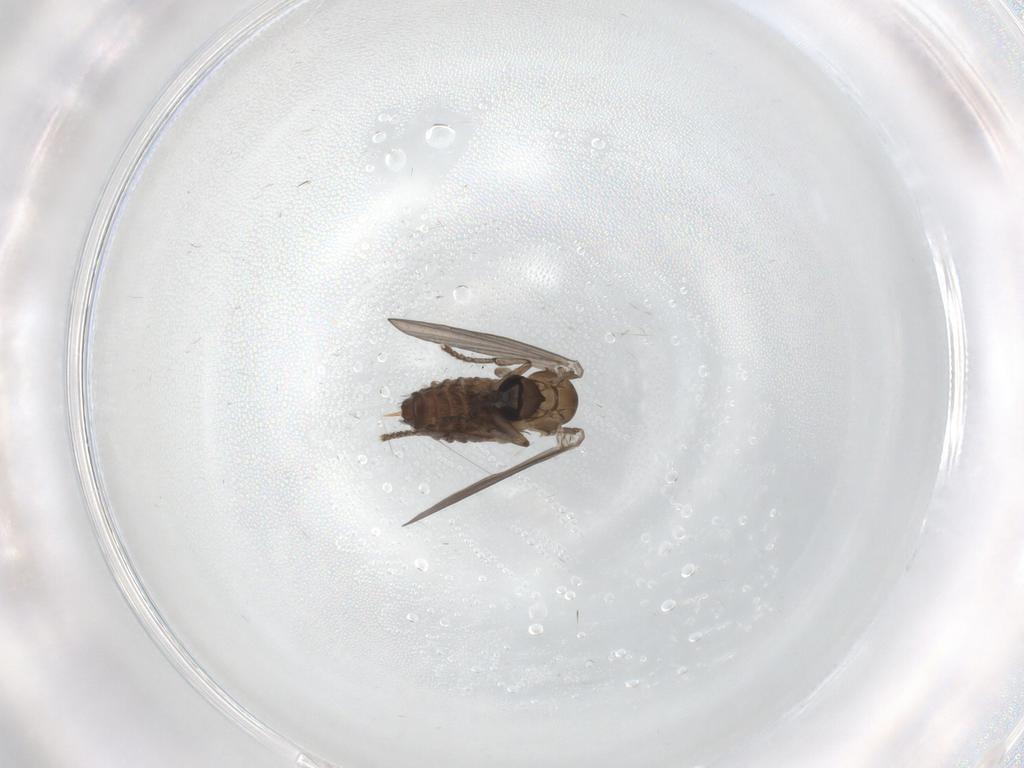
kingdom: Animalia
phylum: Arthropoda
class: Insecta
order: Diptera
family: Psychodidae
